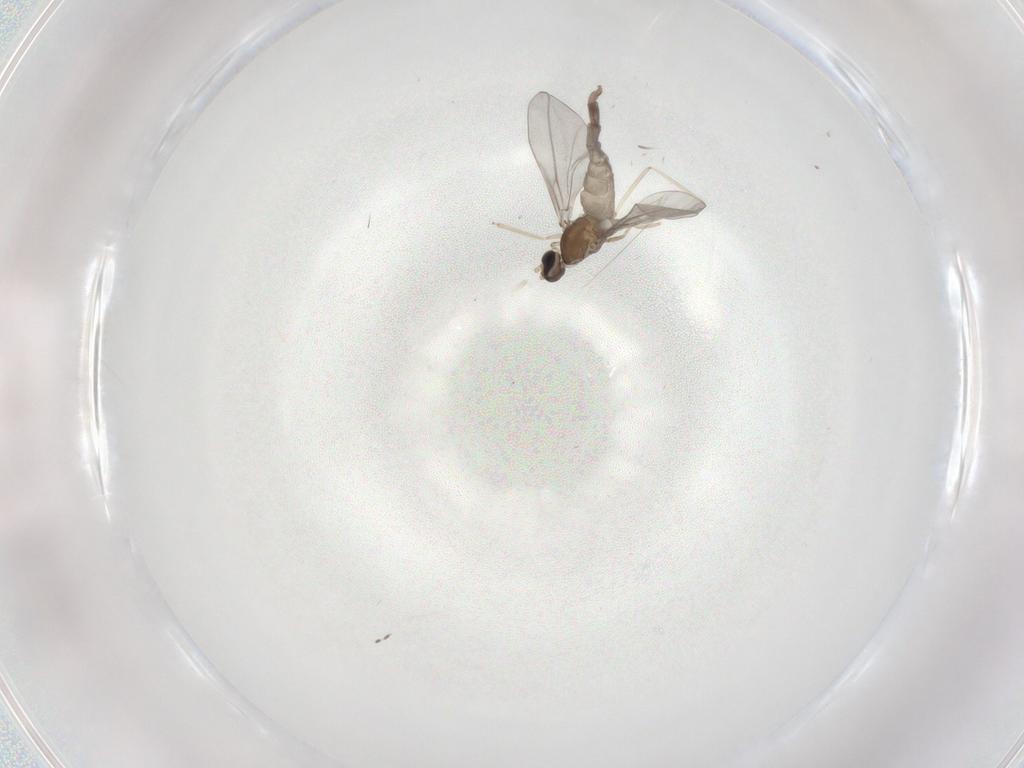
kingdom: Animalia
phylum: Arthropoda
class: Insecta
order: Diptera
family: Cecidomyiidae
